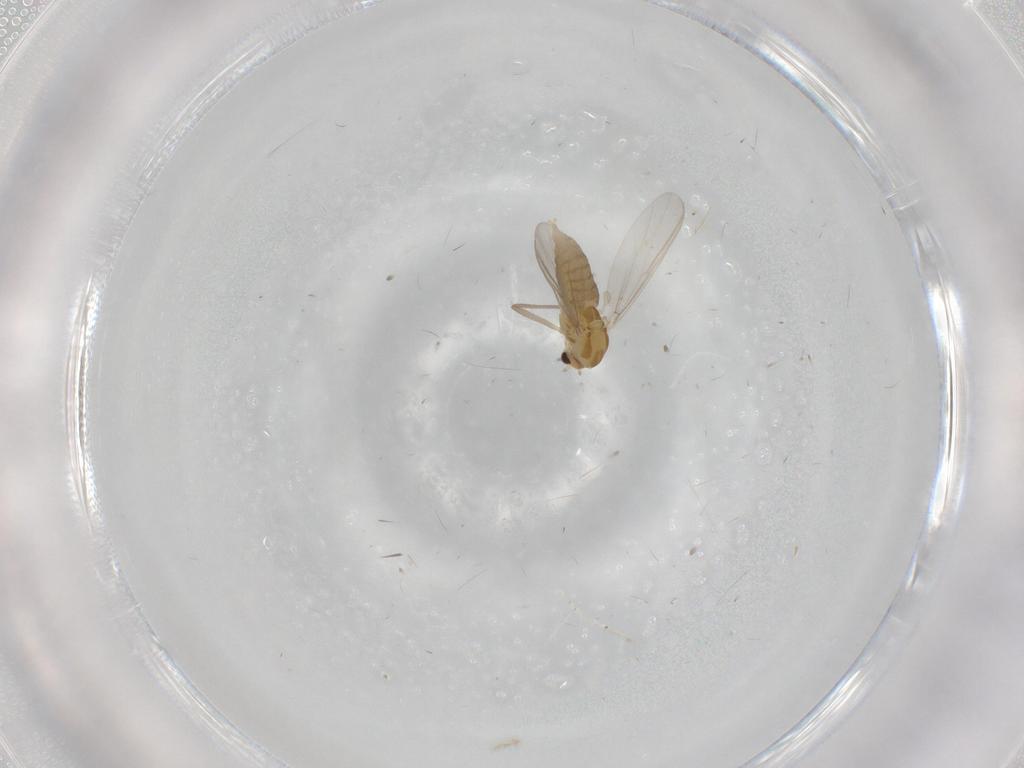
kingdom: Animalia
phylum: Arthropoda
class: Insecta
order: Diptera
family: Chironomidae
